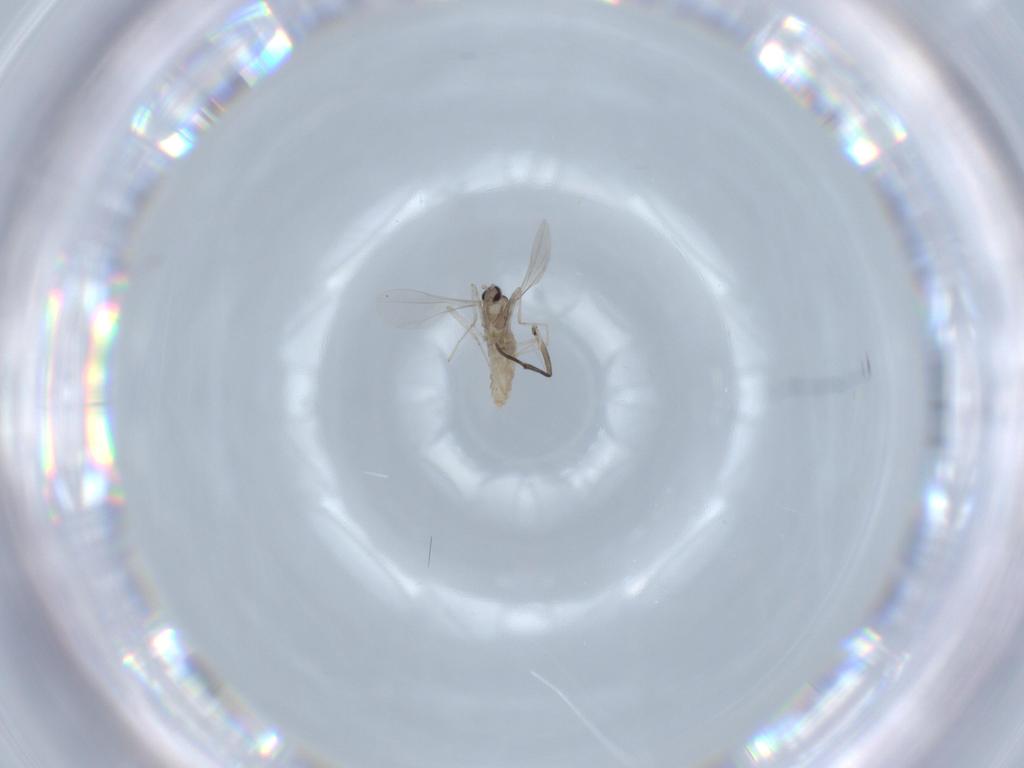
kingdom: Animalia
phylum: Arthropoda
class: Insecta
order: Diptera
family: Sciaridae
